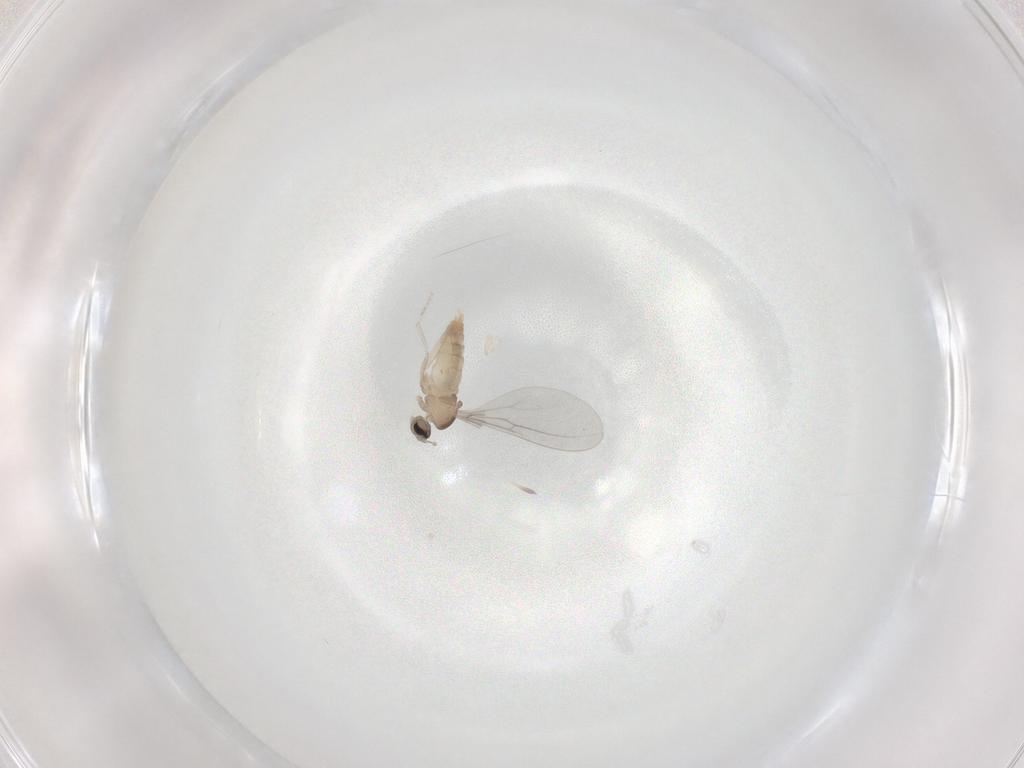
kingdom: Animalia
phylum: Arthropoda
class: Insecta
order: Diptera
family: Cecidomyiidae
